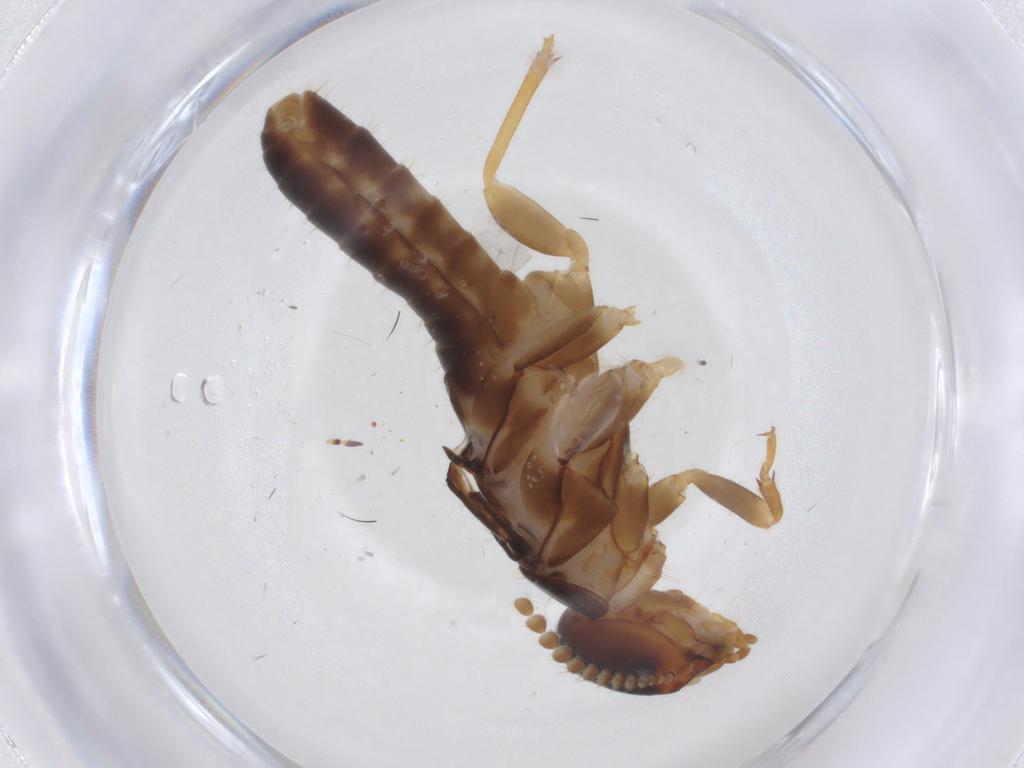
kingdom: Animalia
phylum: Arthropoda
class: Insecta
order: Blattodea
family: Kalotermitidae
